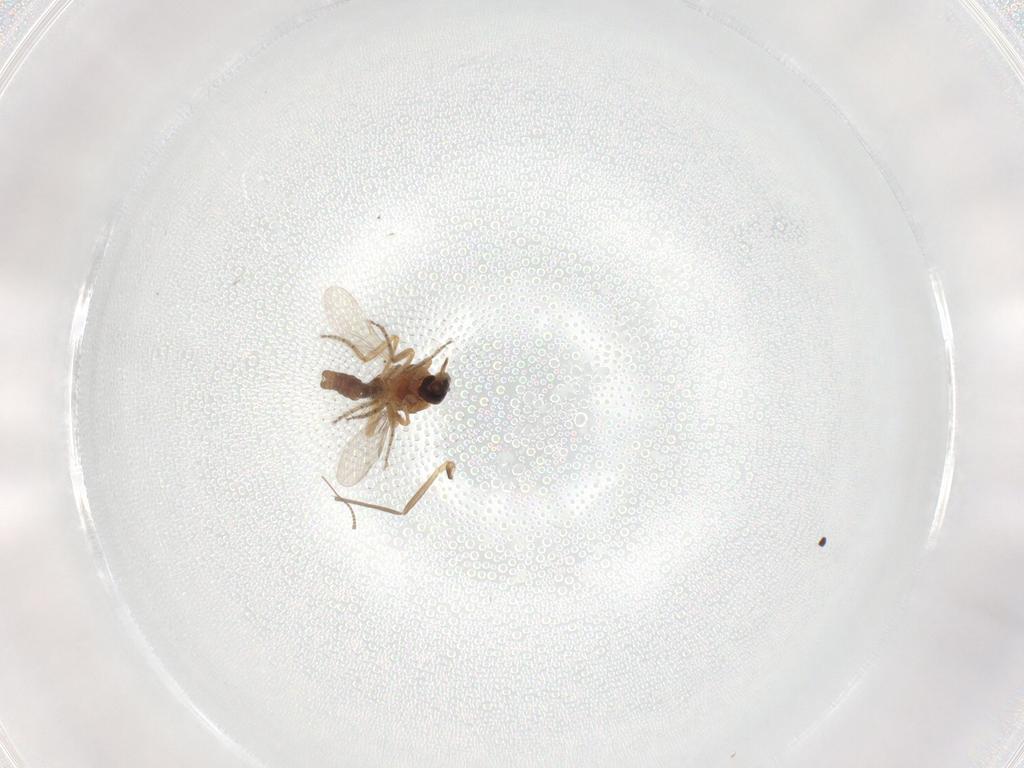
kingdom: Animalia
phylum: Arthropoda
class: Insecta
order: Diptera
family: Ceratopogonidae
